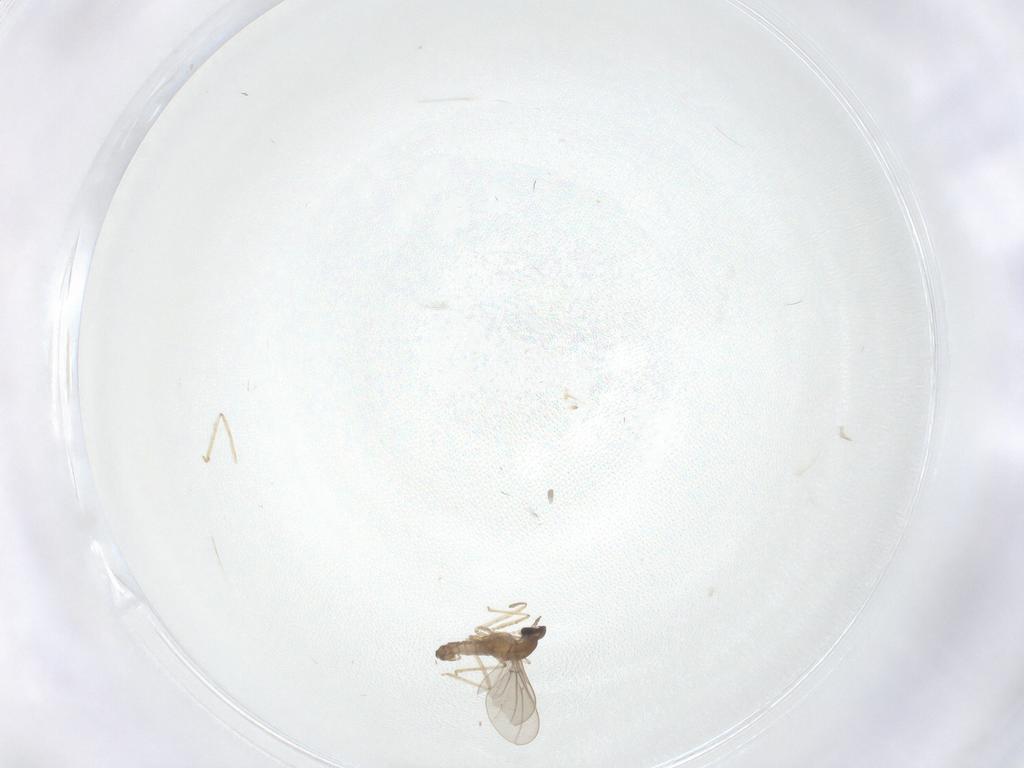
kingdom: Animalia
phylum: Arthropoda
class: Insecta
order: Diptera
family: Cecidomyiidae
